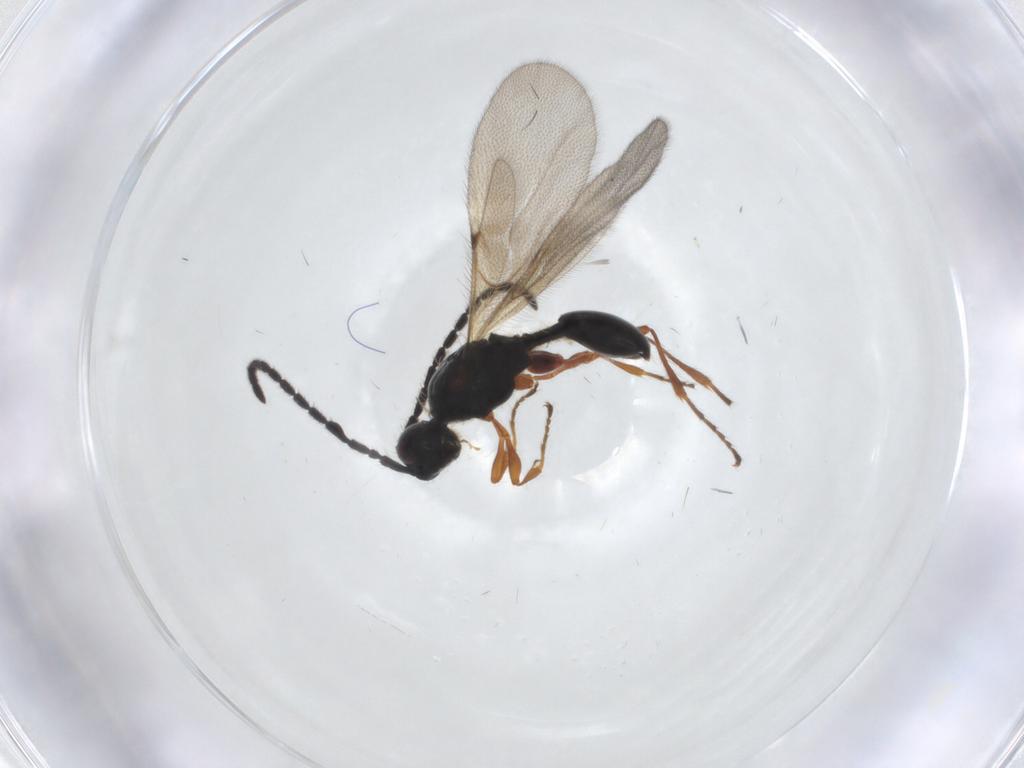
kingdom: Animalia
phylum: Arthropoda
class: Insecta
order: Hymenoptera
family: Diapriidae
